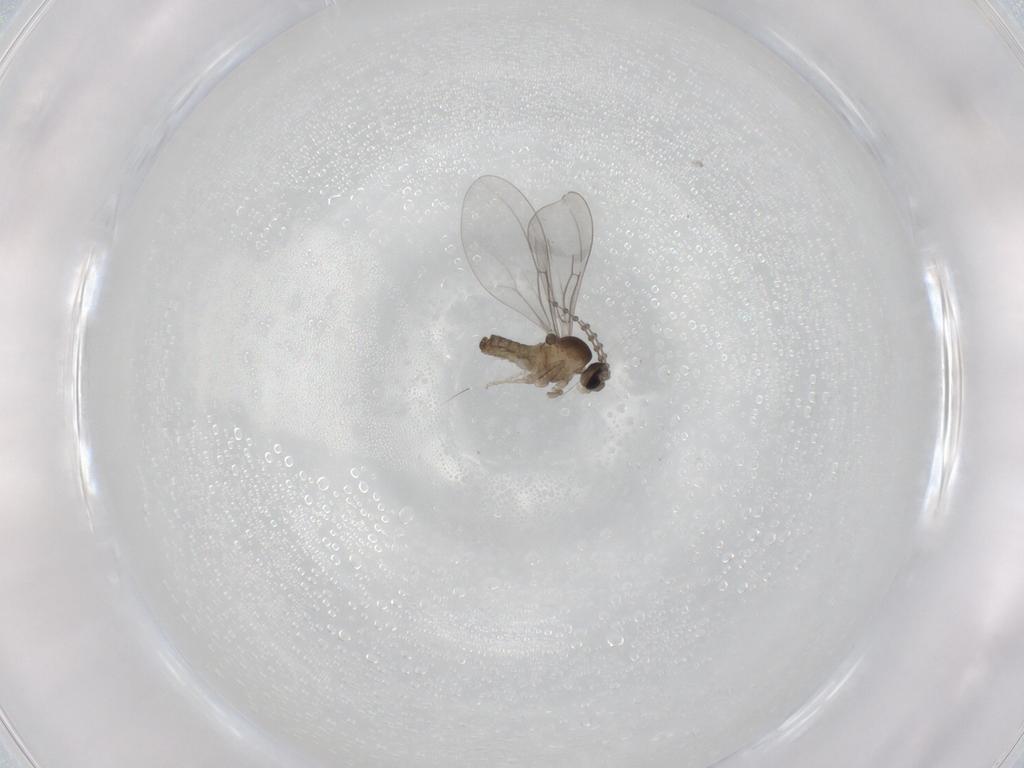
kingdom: Animalia
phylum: Arthropoda
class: Insecta
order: Diptera
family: Cecidomyiidae
